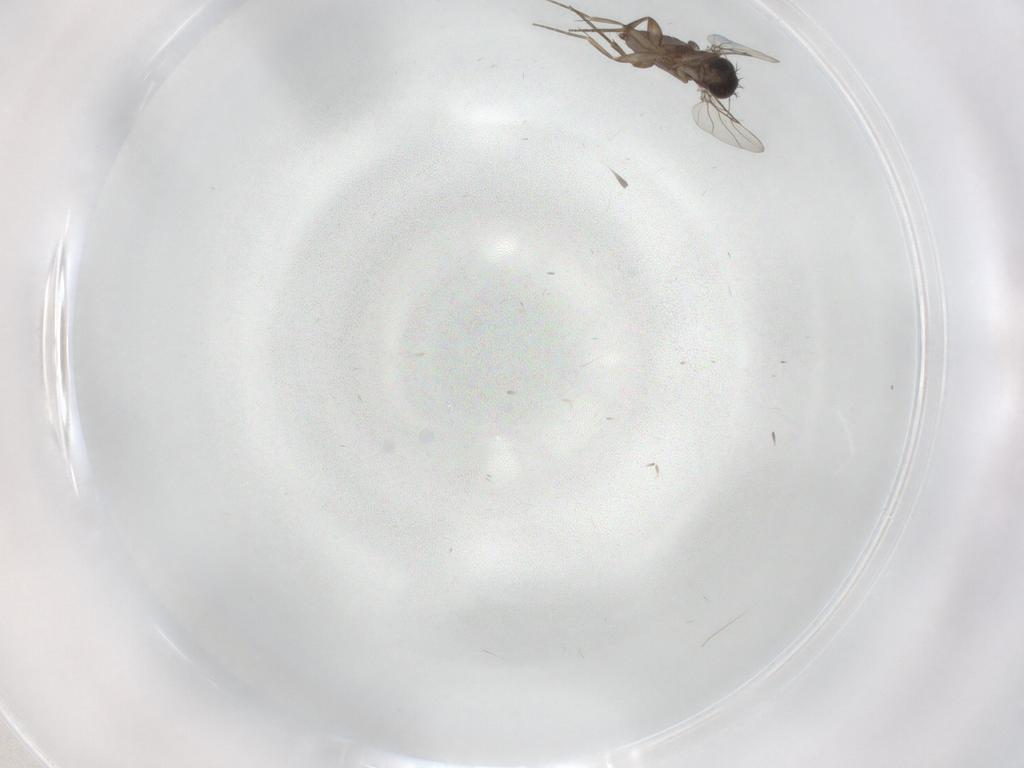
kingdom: Animalia
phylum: Arthropoda
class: Insecta
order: Diptera
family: Phoridae
